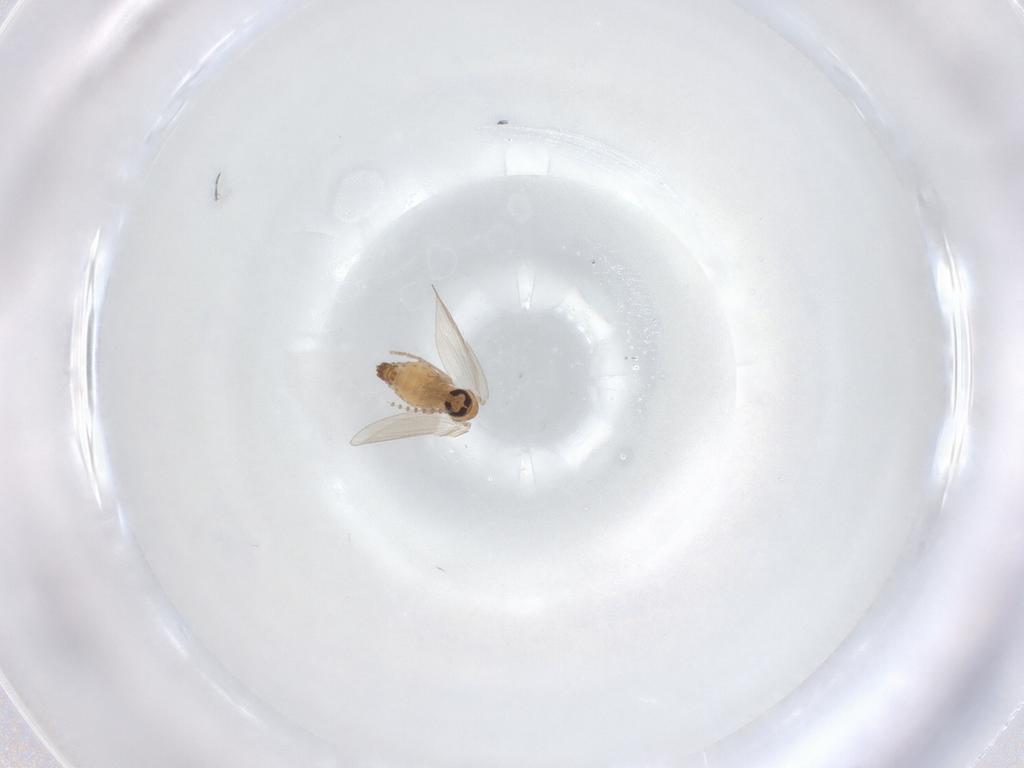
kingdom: Animalia
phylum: Arthropoda
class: Insecta
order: Diptera
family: Psychodidae
